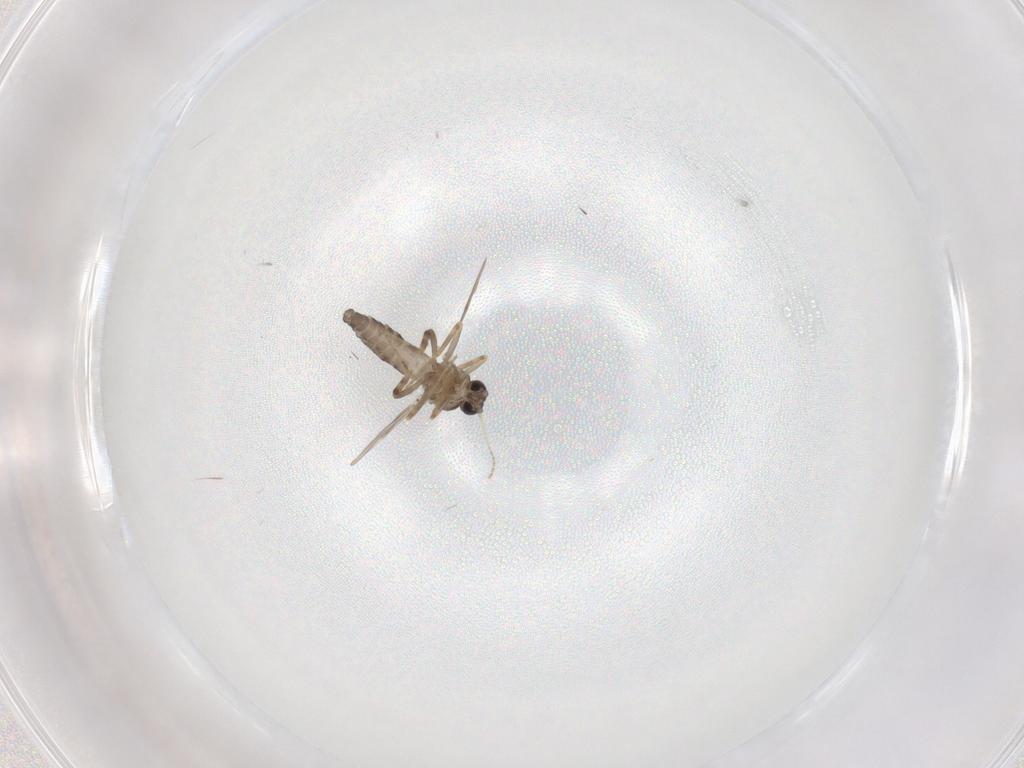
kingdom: Animalia
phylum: Arthropoda
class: Insecta
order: Diptera
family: Ceratopogonidae
